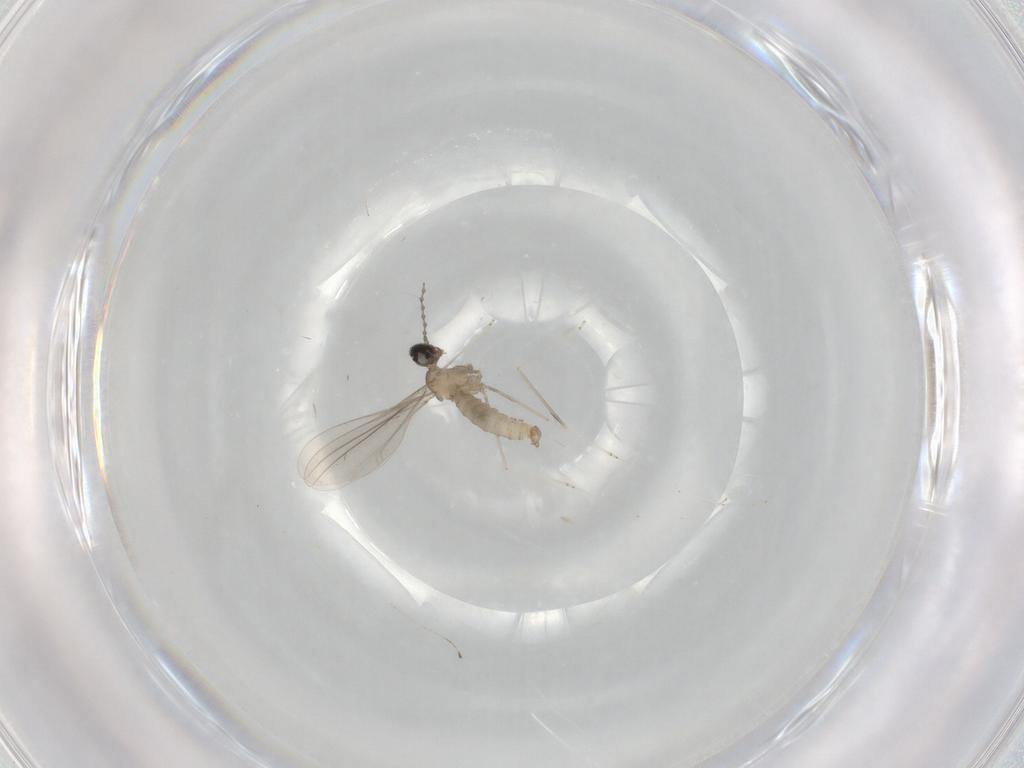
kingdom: Animalia
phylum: Arthropoda
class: Insecta
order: Diptera
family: Cecidomyiidae
